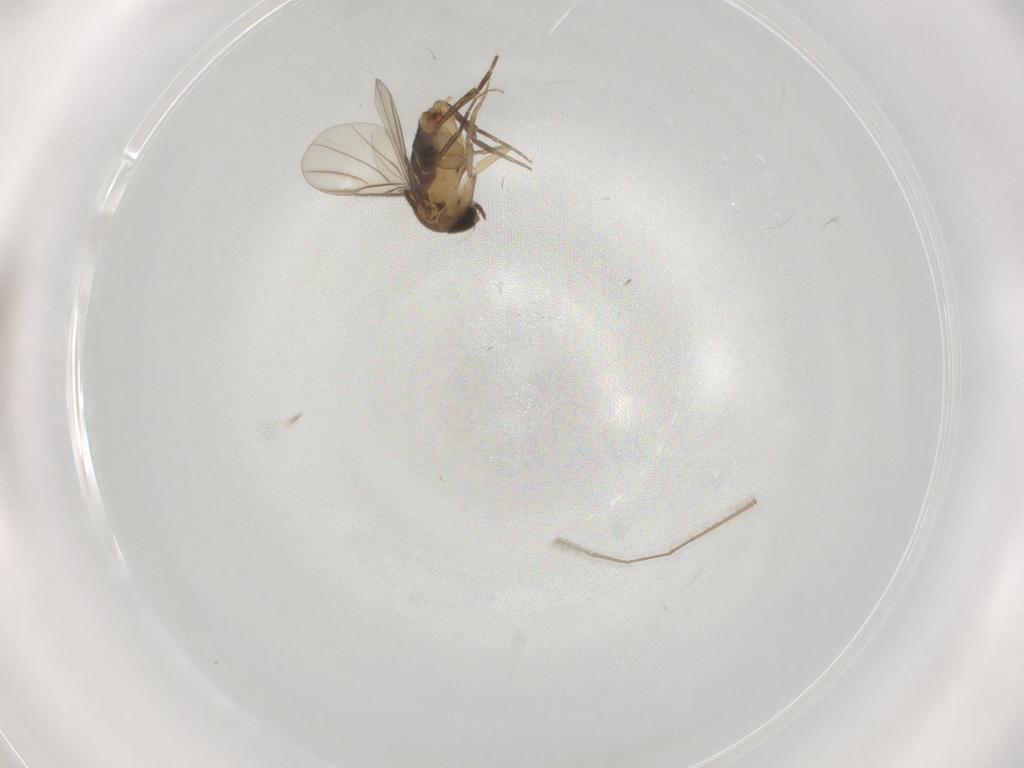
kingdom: Animalia
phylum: Arthropoda
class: Insecta
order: Diptera
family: Phoridae
